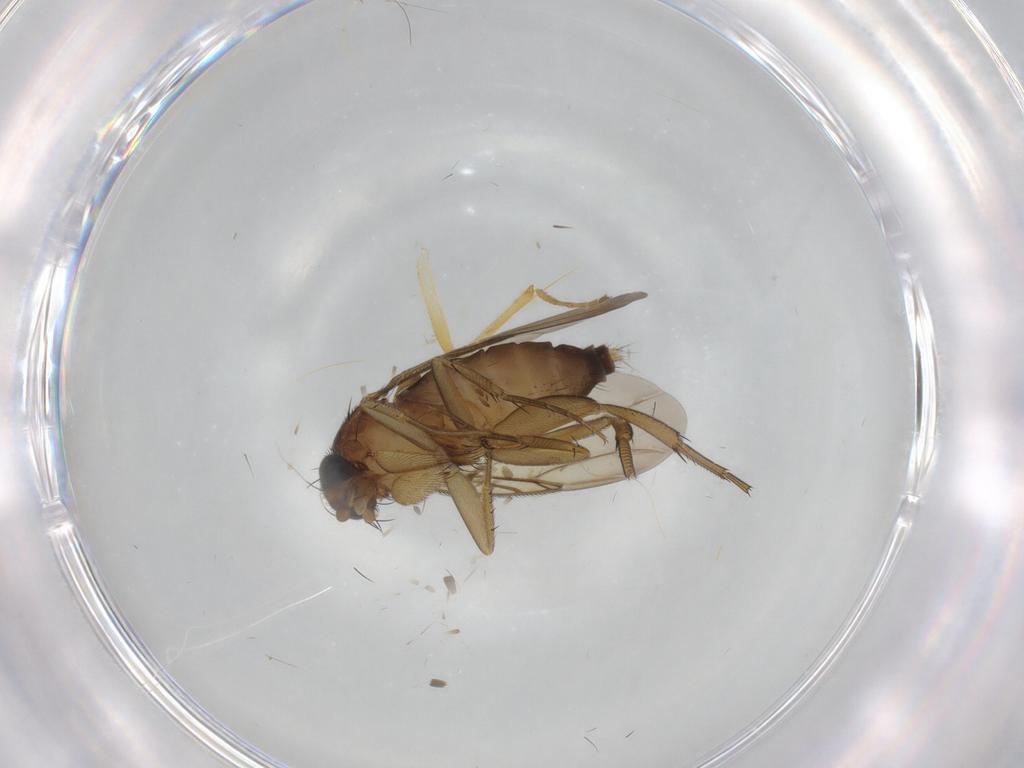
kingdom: Animalia
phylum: Arthropoda
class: Insecta
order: Diptera
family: Hybotidae
